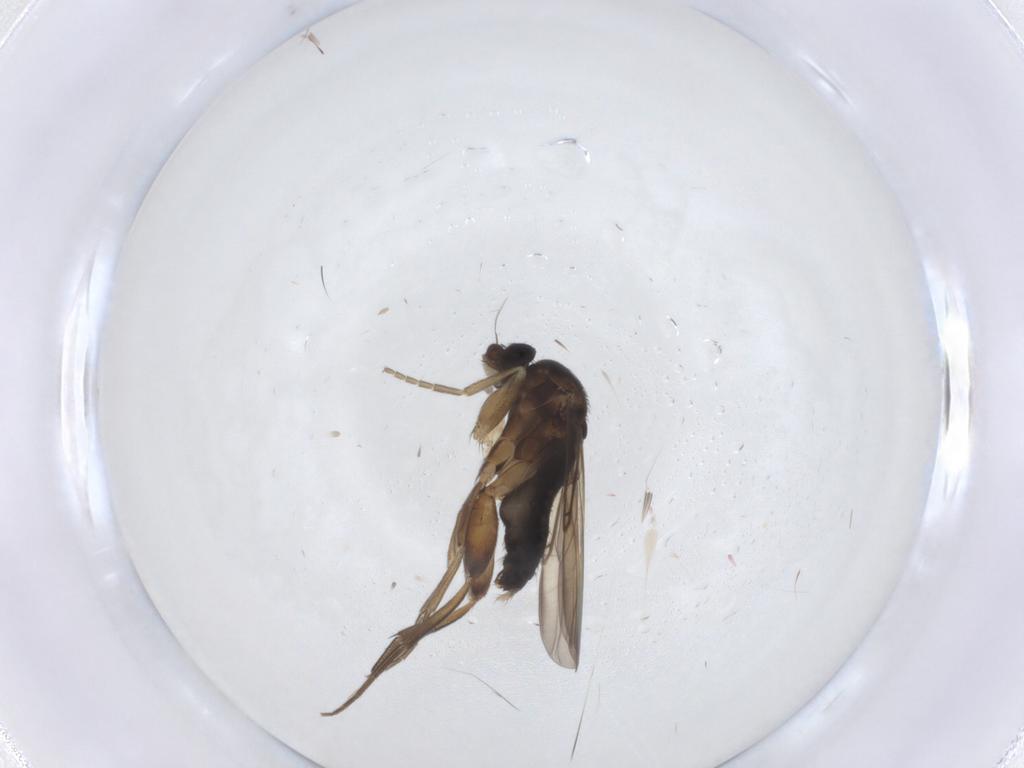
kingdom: Animalia
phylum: Arthropoda
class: Insecta
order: Diptera
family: Phoridae
